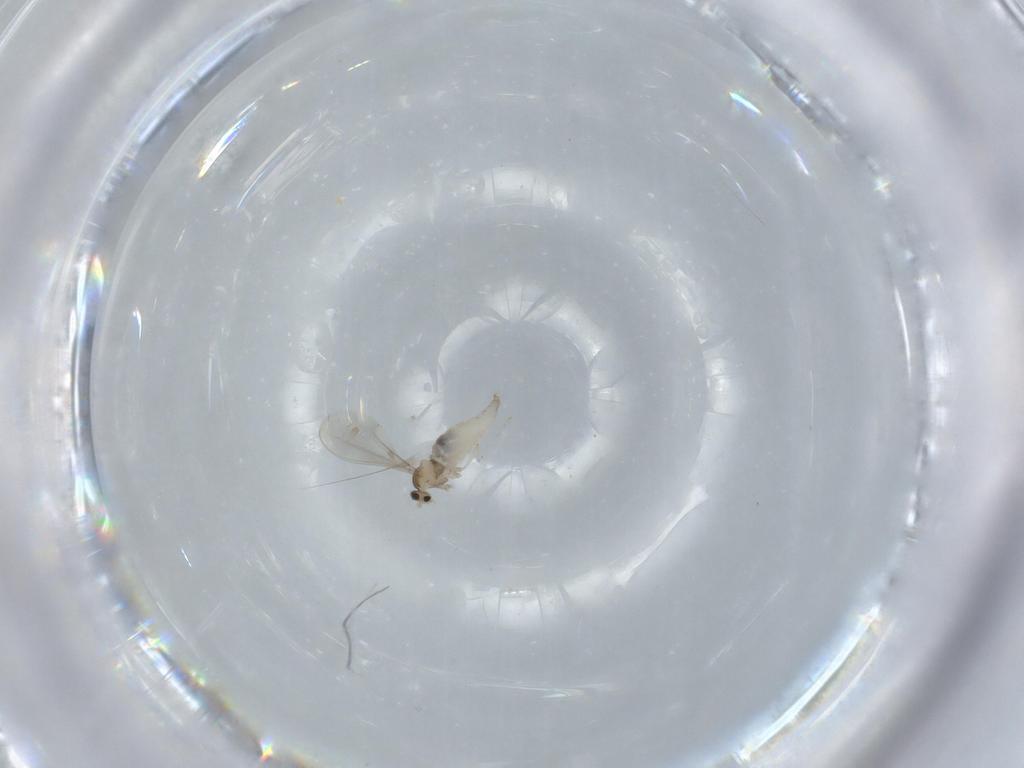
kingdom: Animalia
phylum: Arthropoda
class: Insecta
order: Diptera
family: Cecidomyiidae
